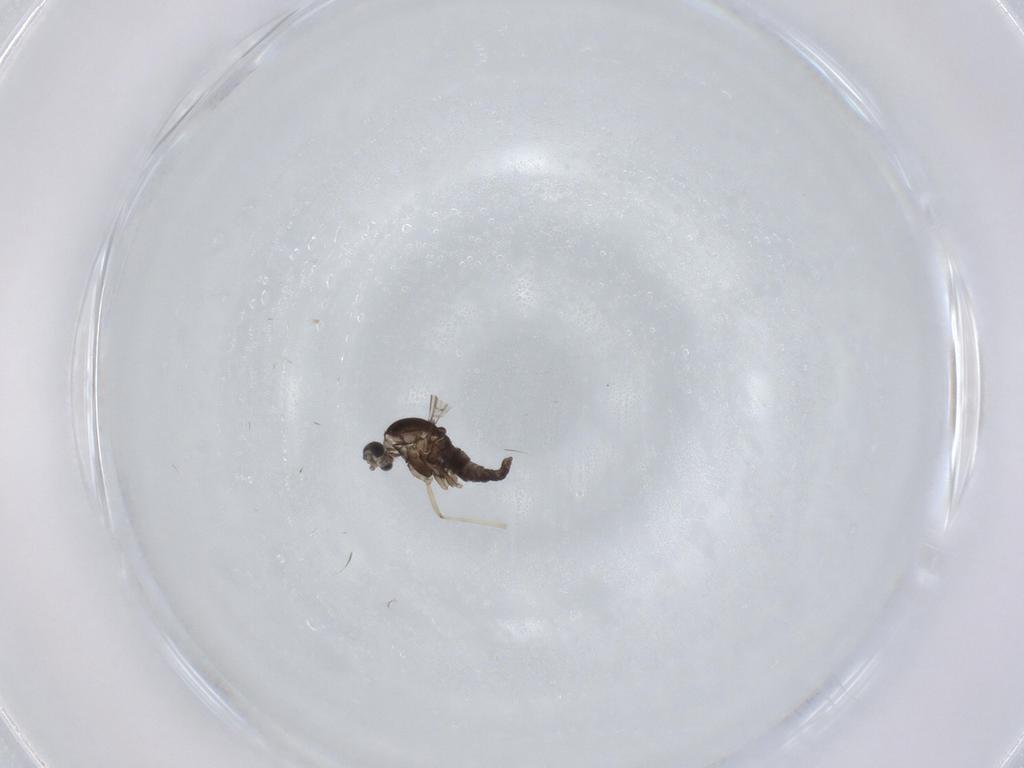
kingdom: Animalia
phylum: Arthropoda
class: Insecta
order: Diptera
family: Cecidomyiidae
